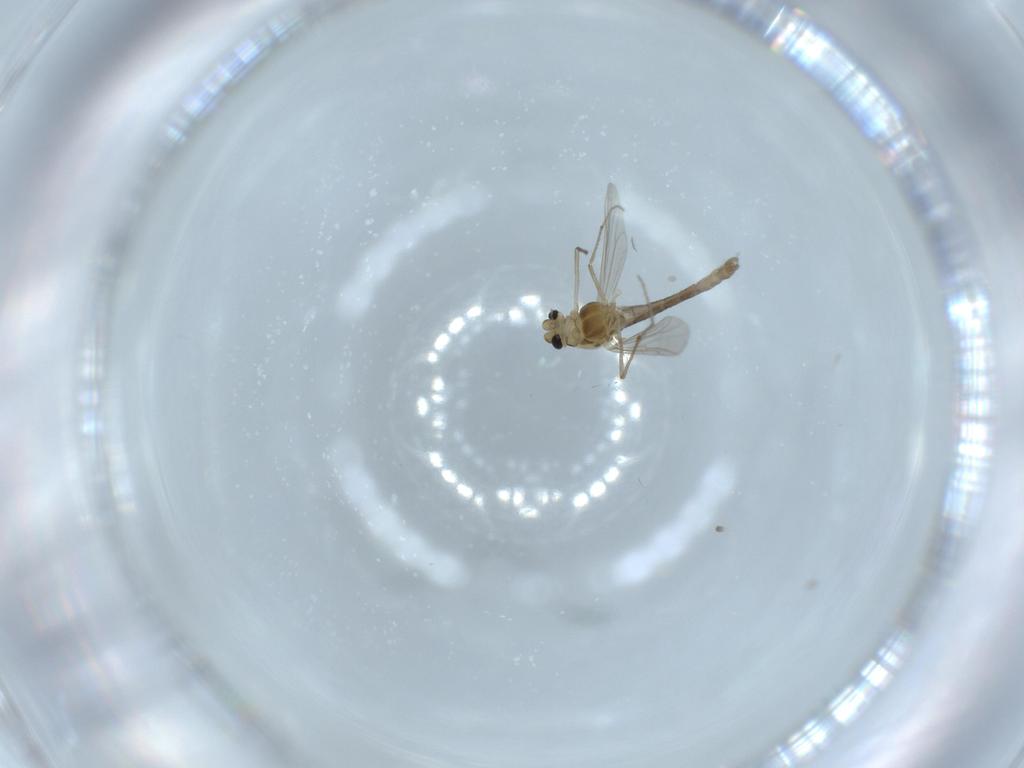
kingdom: Animalia
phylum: Arthropoda
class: Insecta
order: Diptera
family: Chironomidae
